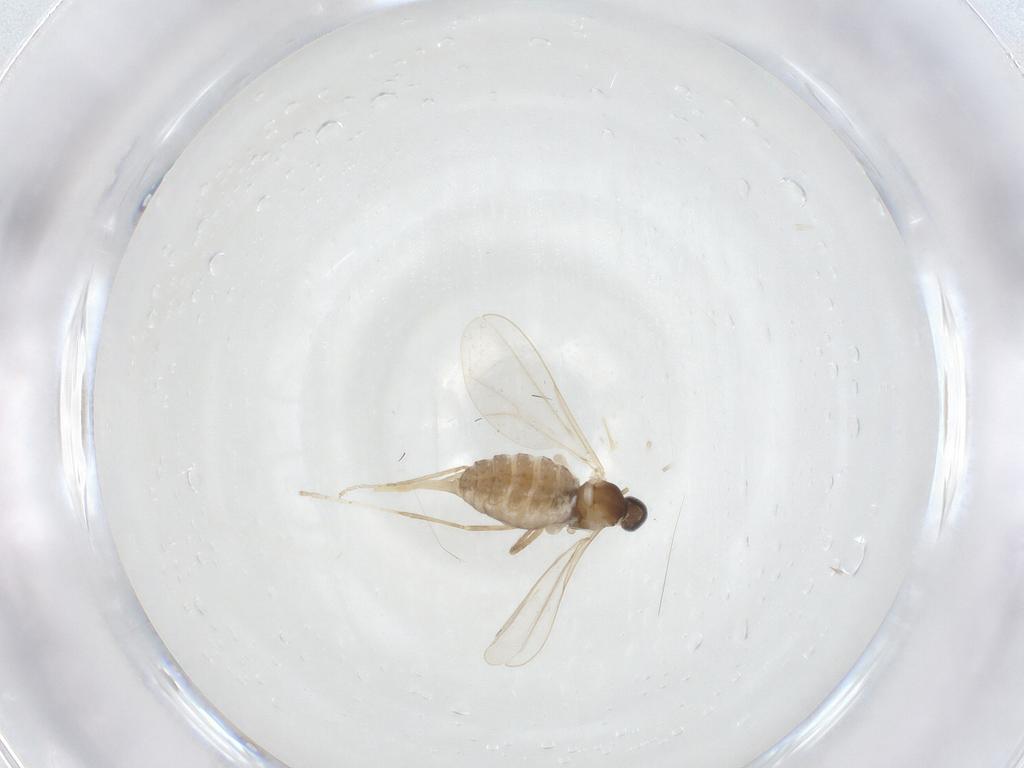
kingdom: Animalia
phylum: Arthropoda
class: Insecta
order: Diptera
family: Cecidomyiidae
